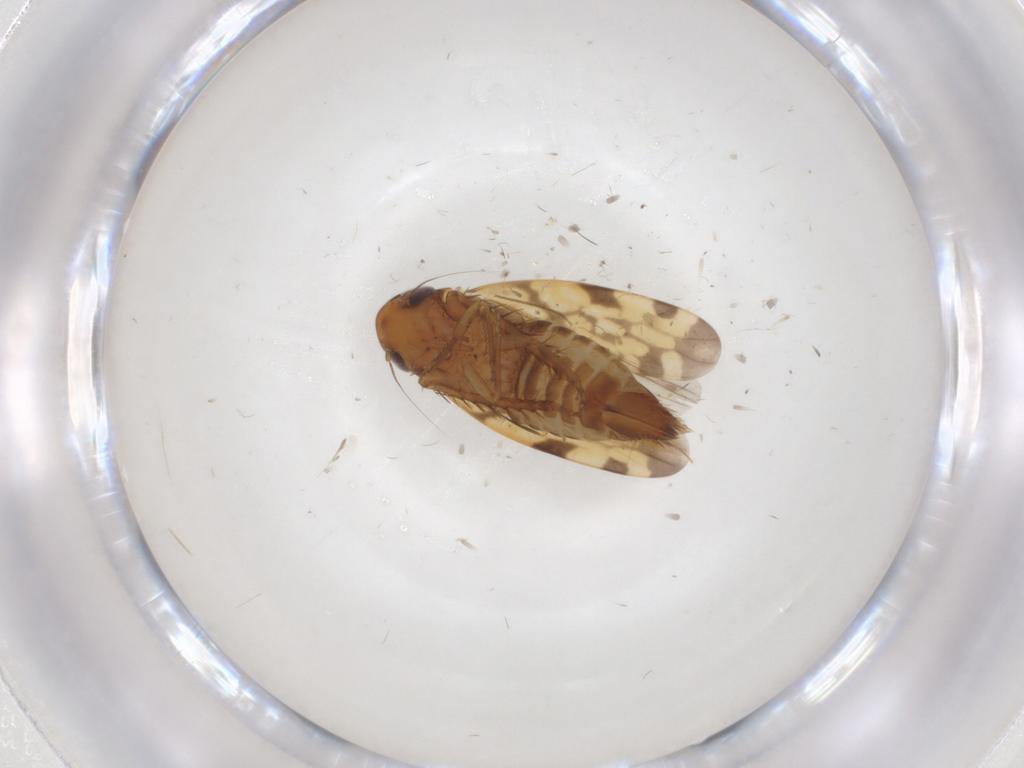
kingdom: Animalia
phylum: Arthropoda
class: Insecta
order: Hemiptera
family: Cicadellidae
